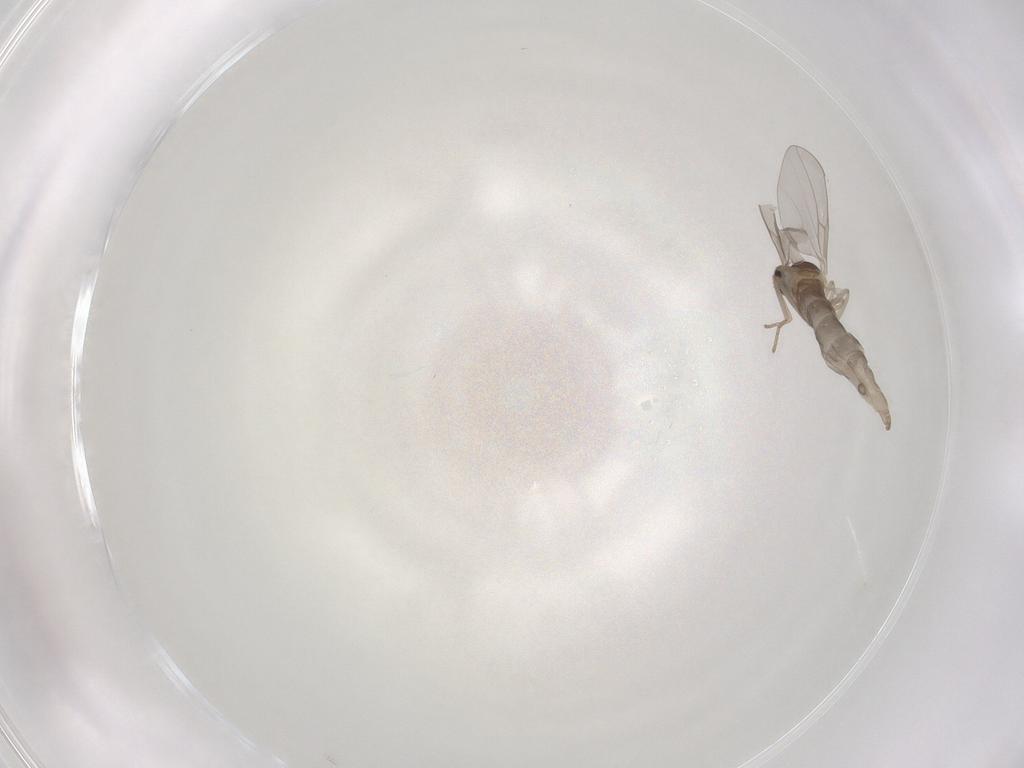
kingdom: Animalia
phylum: Arthropoda
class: Insecta
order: Diptera
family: Cecidomyiidae
